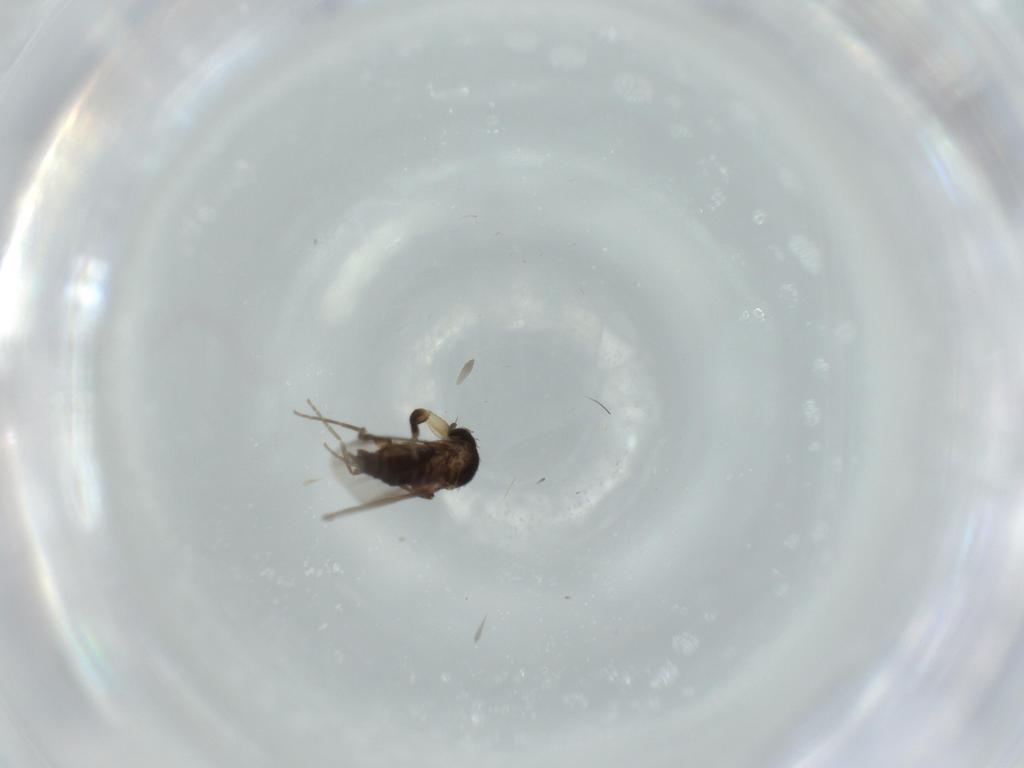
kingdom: Animalia
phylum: Arthropoda
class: Insecta
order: Diptera
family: Phoridae
